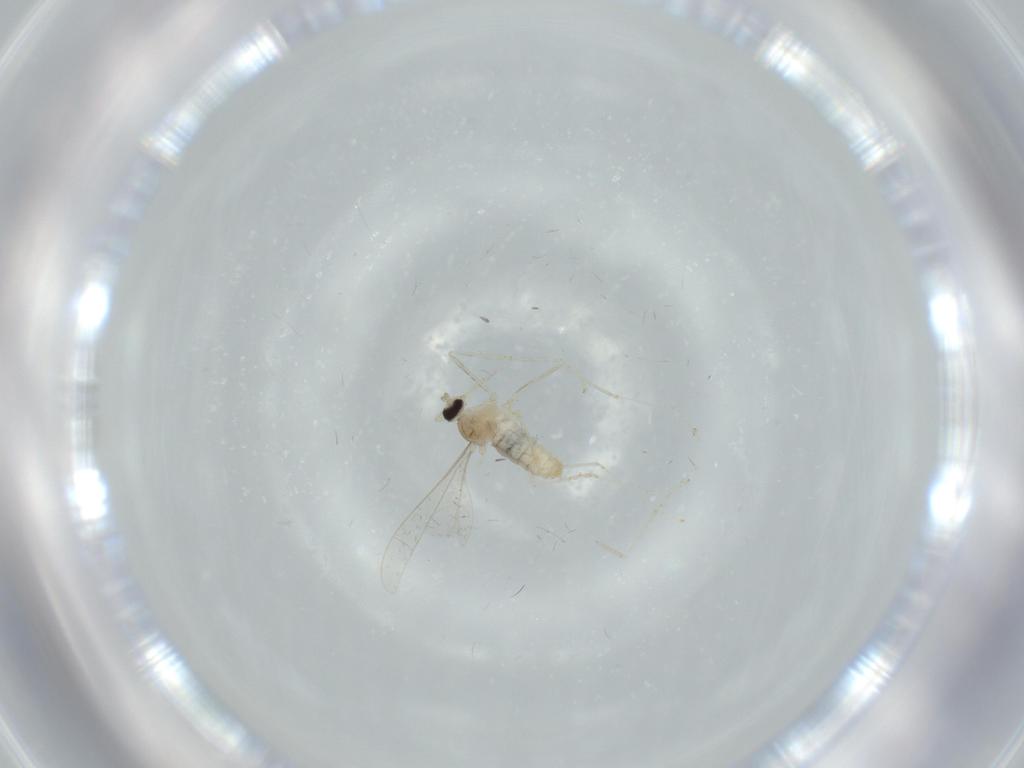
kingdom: Animalia
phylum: Arthropoda
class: Insecta
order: Diptera
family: Cecidomyiidae
